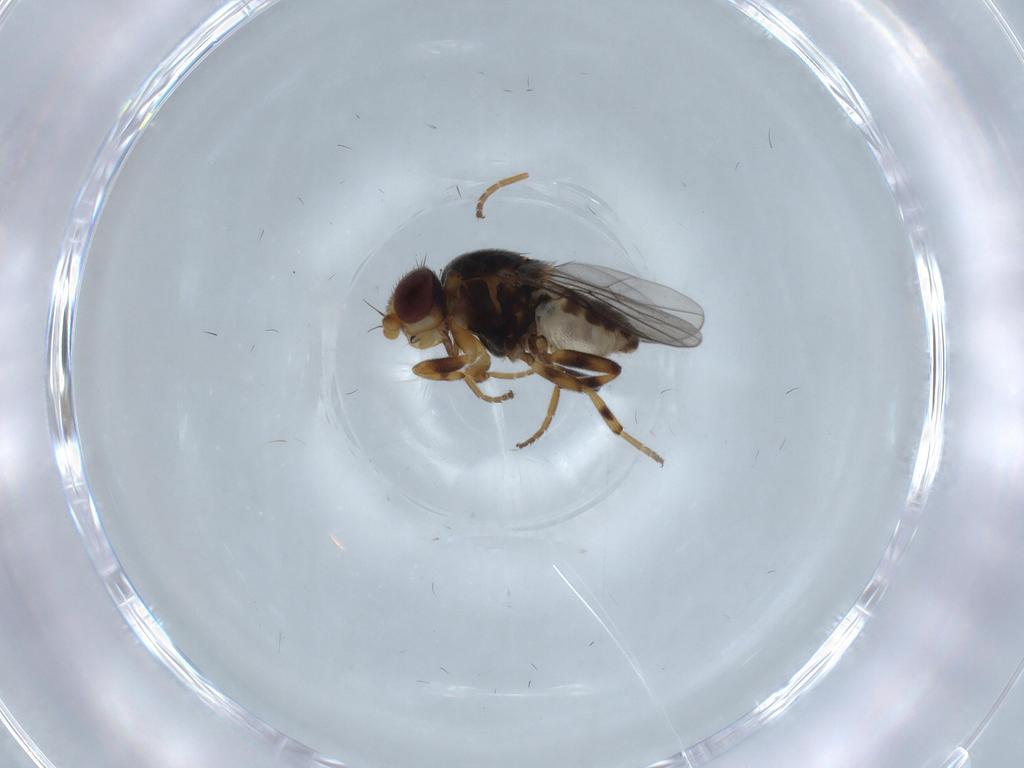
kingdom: Animalia
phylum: Arthropoda
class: Insecta
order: Diptera
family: Chloropidae
